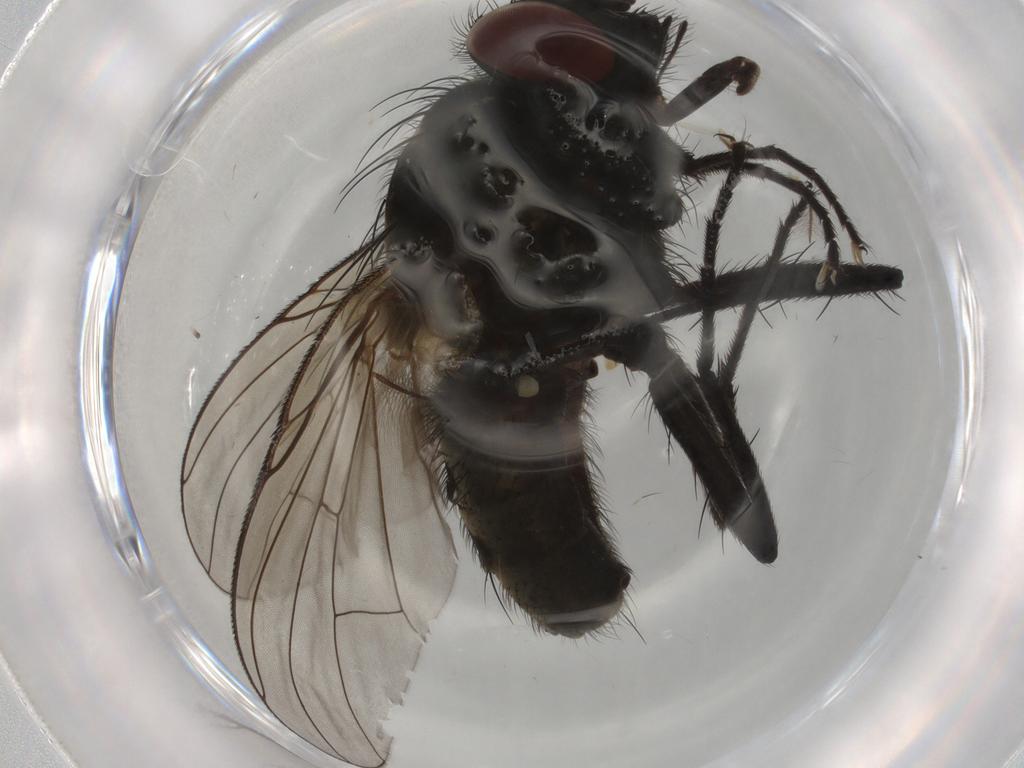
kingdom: Animalia
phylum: Arthropoda
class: Insecta
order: Diptera
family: Muscidae
